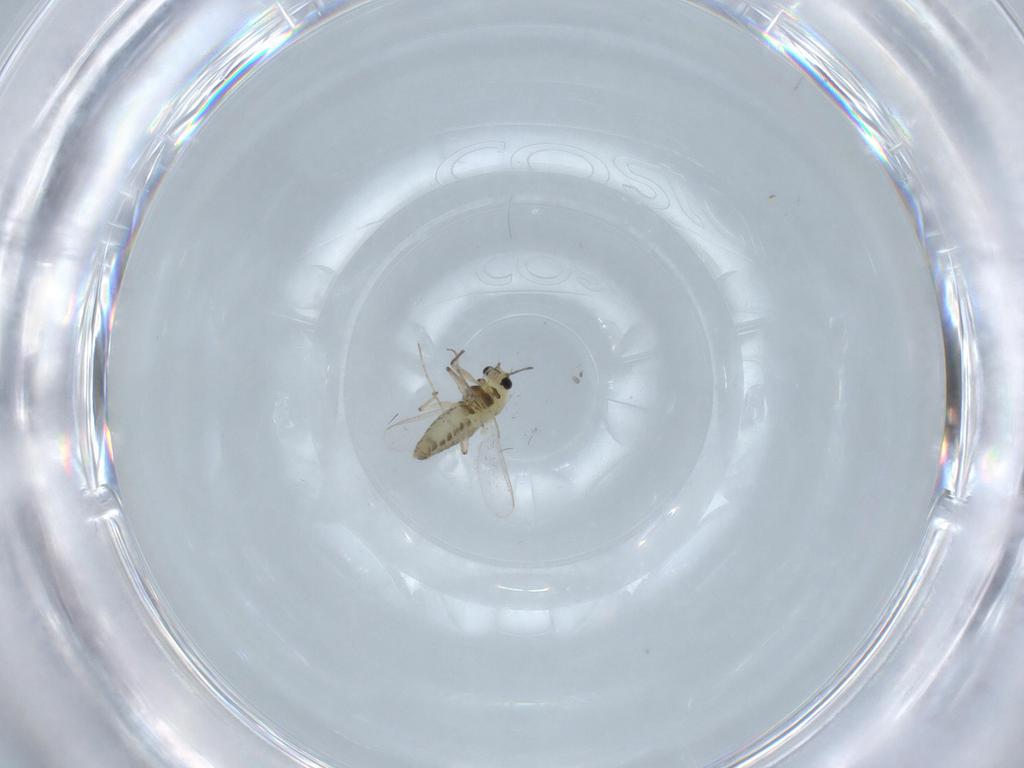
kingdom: Animalia
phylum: Arthropoda
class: Insecta
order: Diptera
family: Chironomidae
